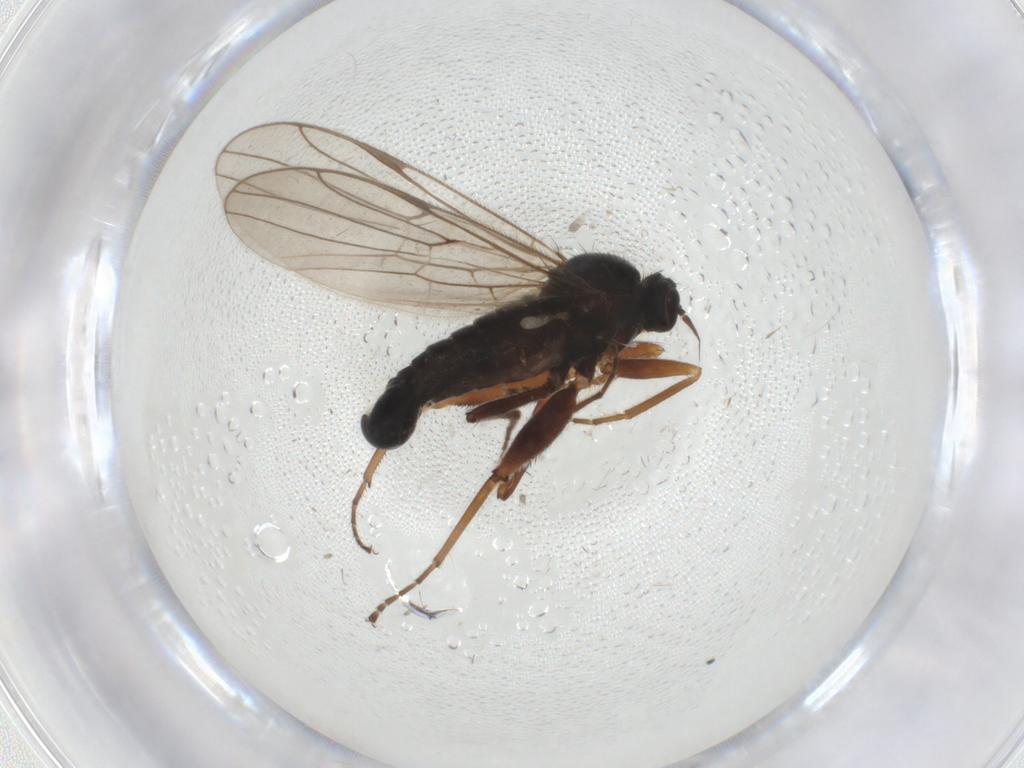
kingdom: Animalia
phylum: Arthropoda
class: Insecta
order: Diptera
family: Hybotidae
